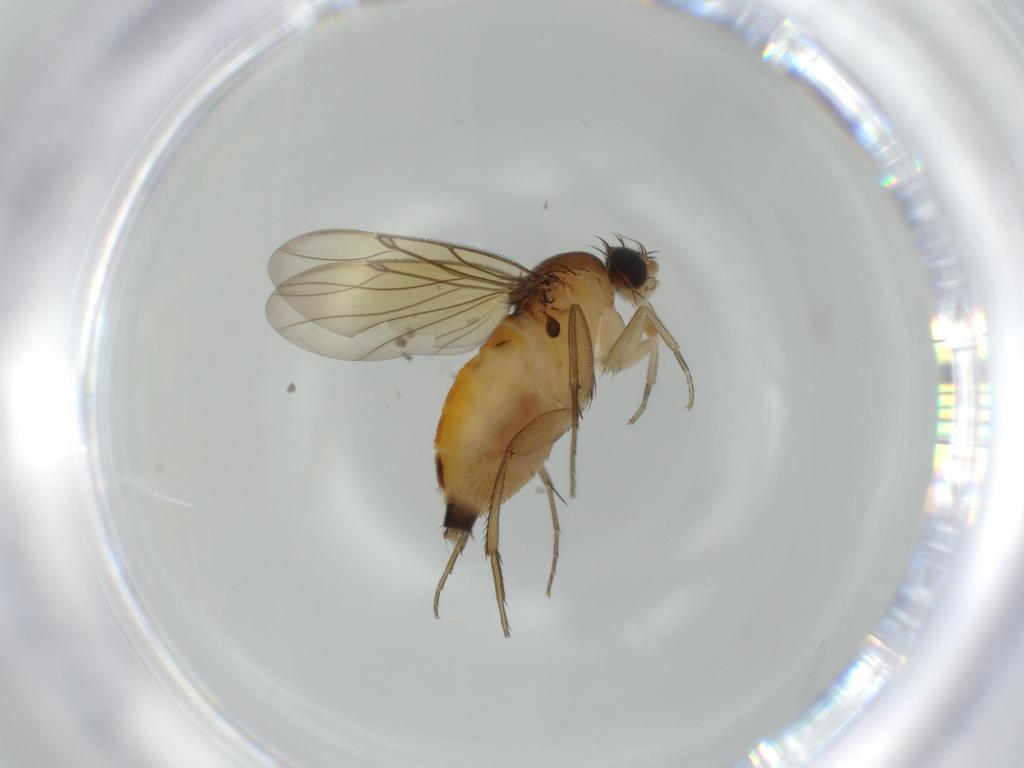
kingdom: Animalia
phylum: Arthropoda
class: Insecta
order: Diptera
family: Phoridae
